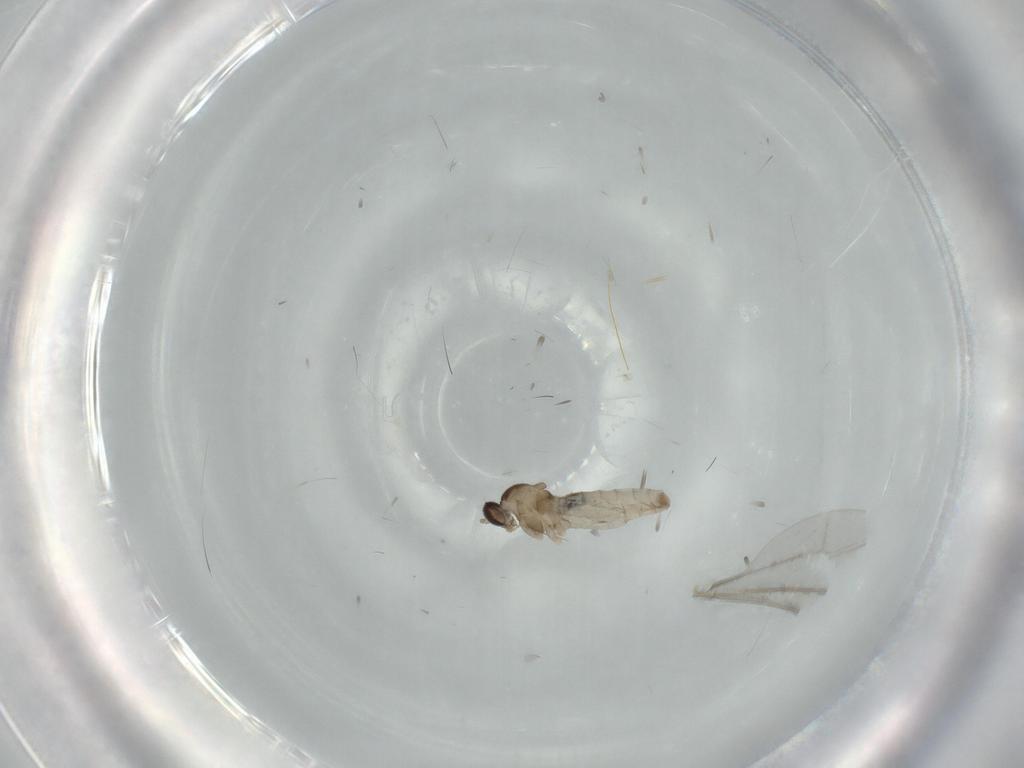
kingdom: Animalia
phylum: Arthropoda
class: Insecta
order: Diptera
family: Cecidomyiidae
